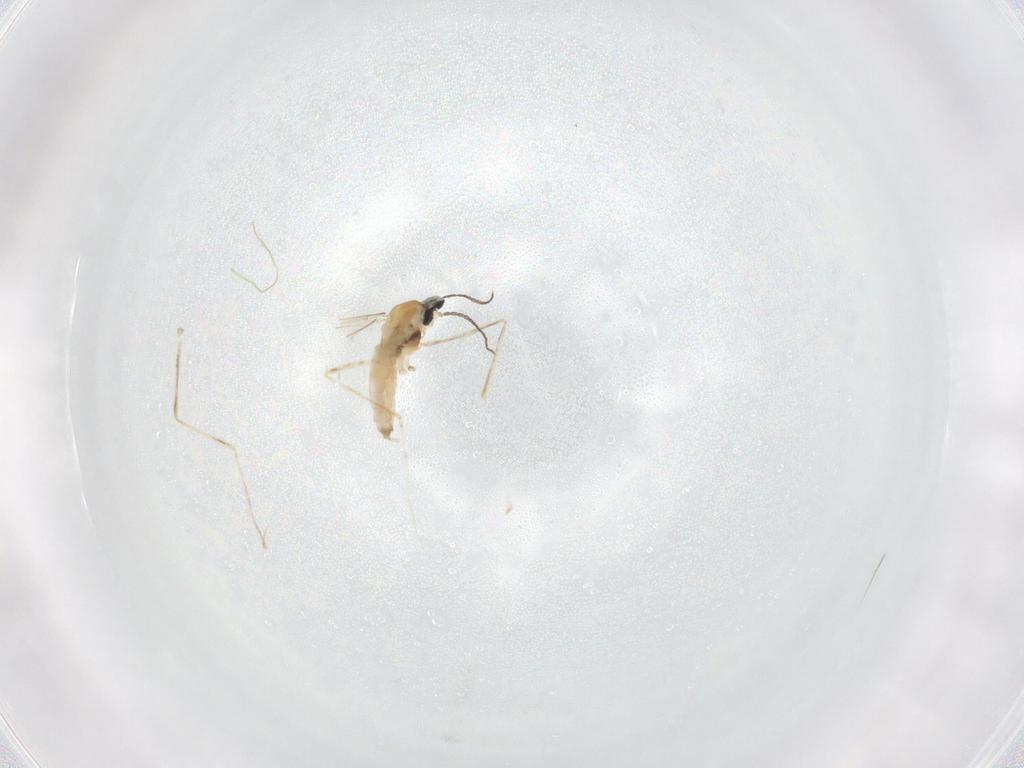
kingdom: Animalia
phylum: Arthropoda
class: Insecta
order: Diptera
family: Cecidomyiidae
